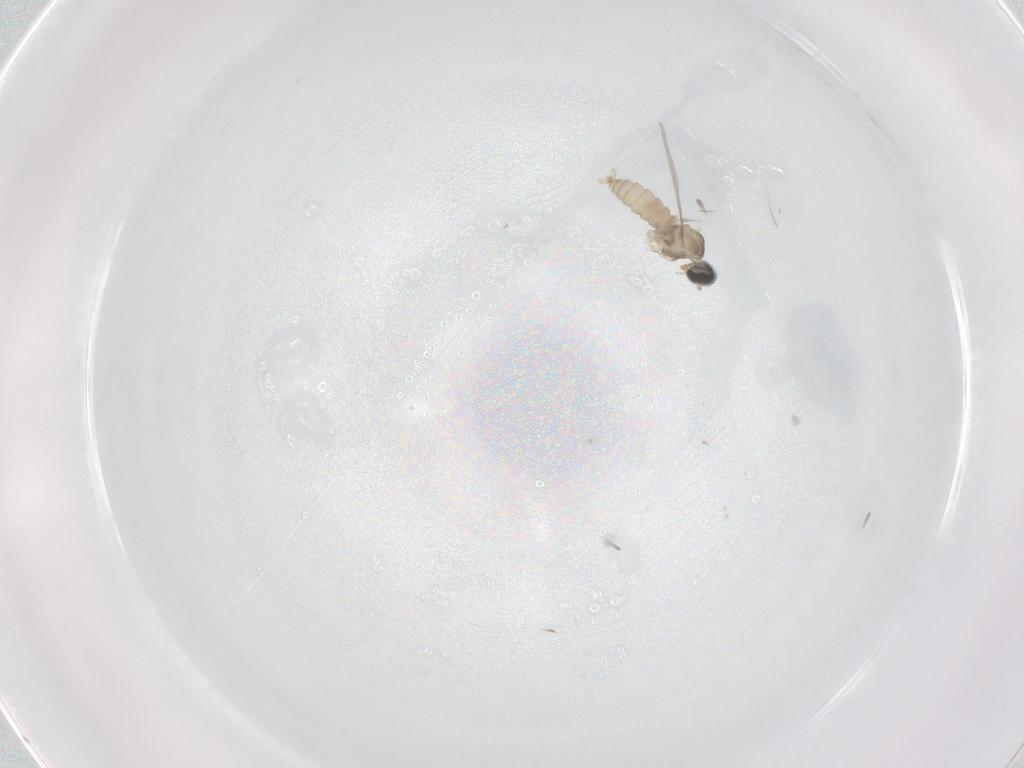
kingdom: Animalia
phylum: Arthropoda
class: Insecta
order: Diptera
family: Cecidomyiidae
